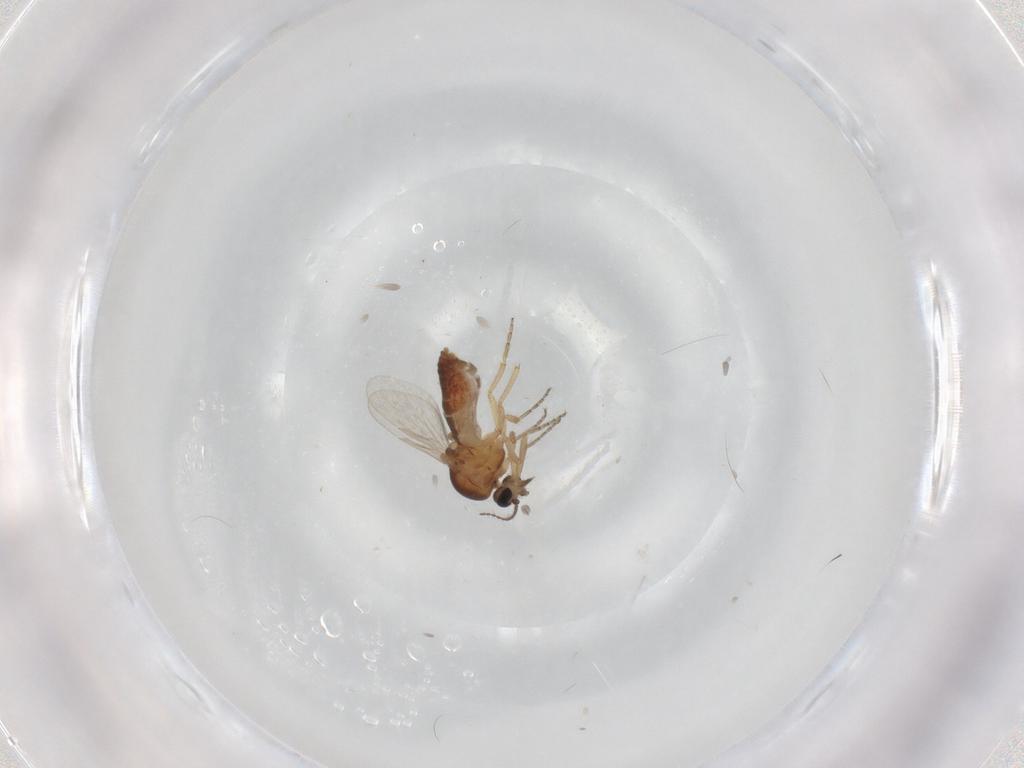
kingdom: Animalia
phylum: Arthropoda
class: Insecta
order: Diptera
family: Ceratopogonidae
